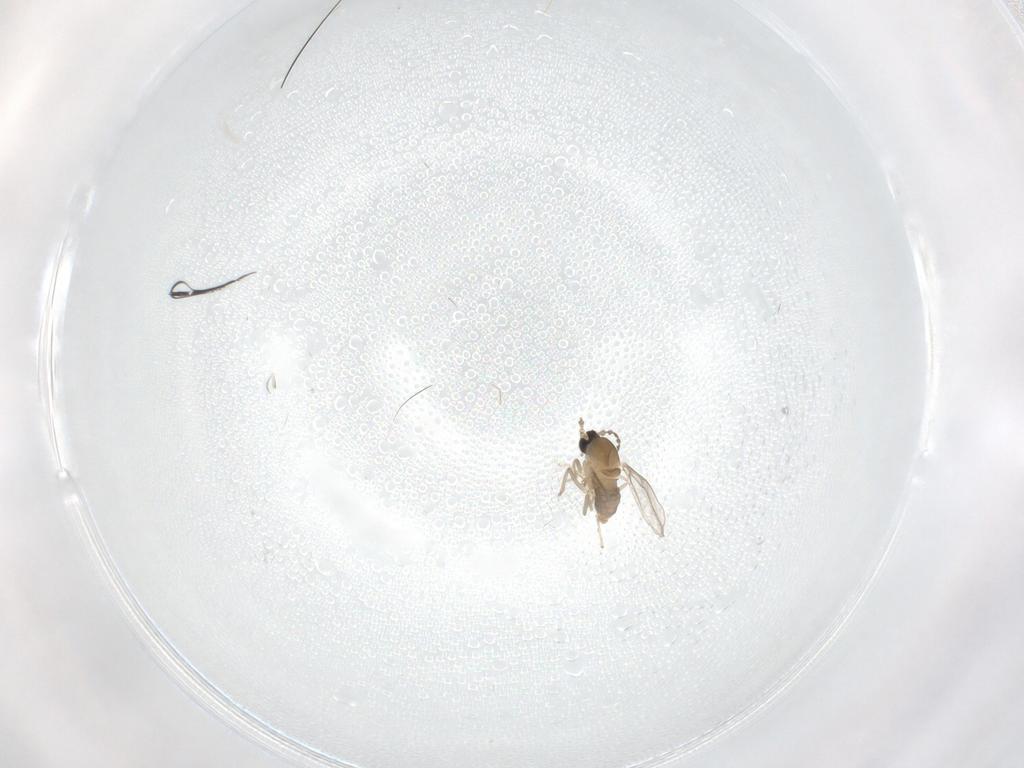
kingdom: Animalia
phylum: Arthropoda
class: Insecta
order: Diptera
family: Cecidomyiidae
